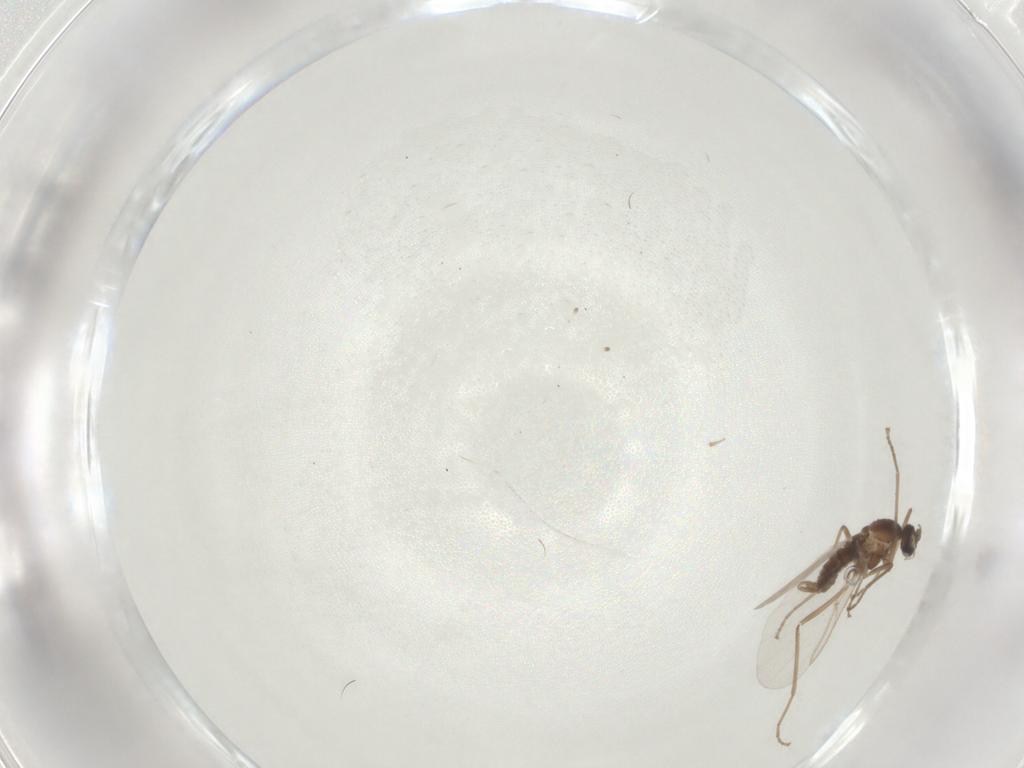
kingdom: Animalia
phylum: Arthropoda
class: Insecta
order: Diptera
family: Cecidomyiidae
